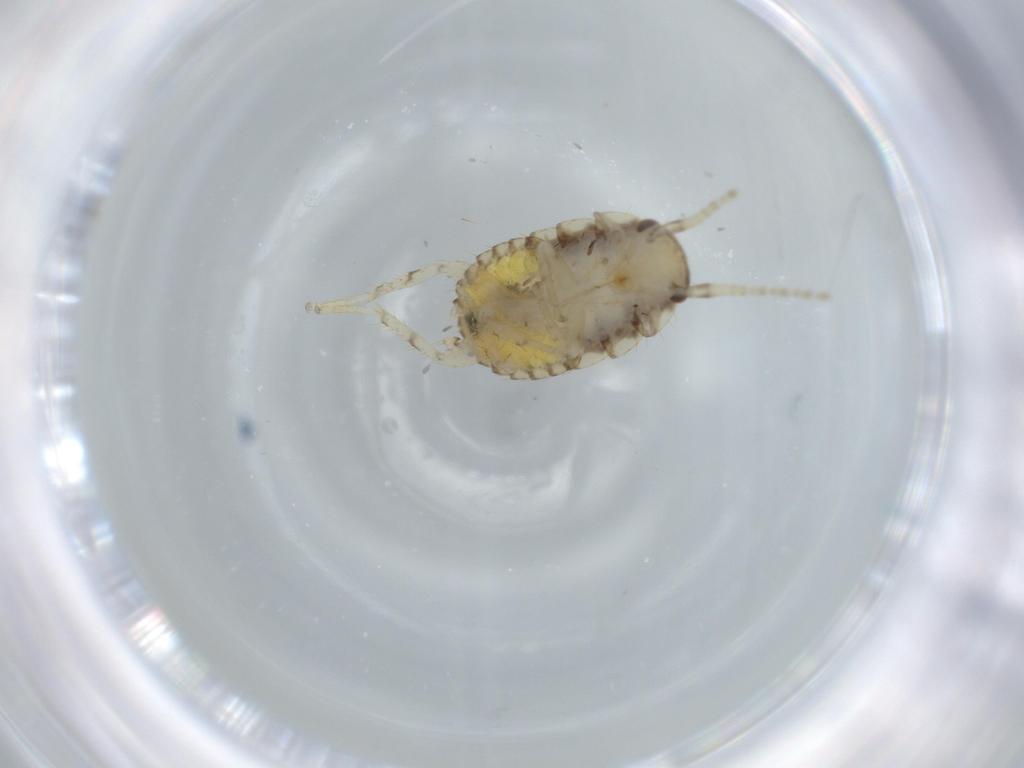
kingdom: Animalia
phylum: Arthropoda
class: Insecta
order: Blattodea
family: Ectobiidae
